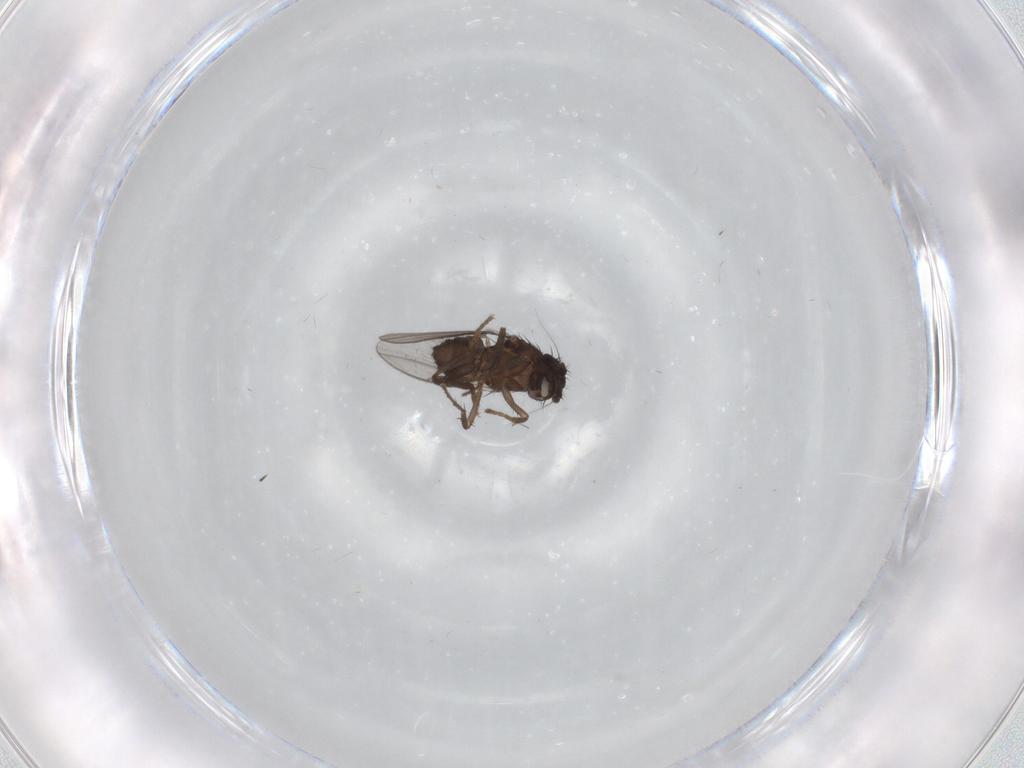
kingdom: Animalia
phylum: Arthropoda
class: Insecta
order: Diptera
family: Sphaeroceridae
